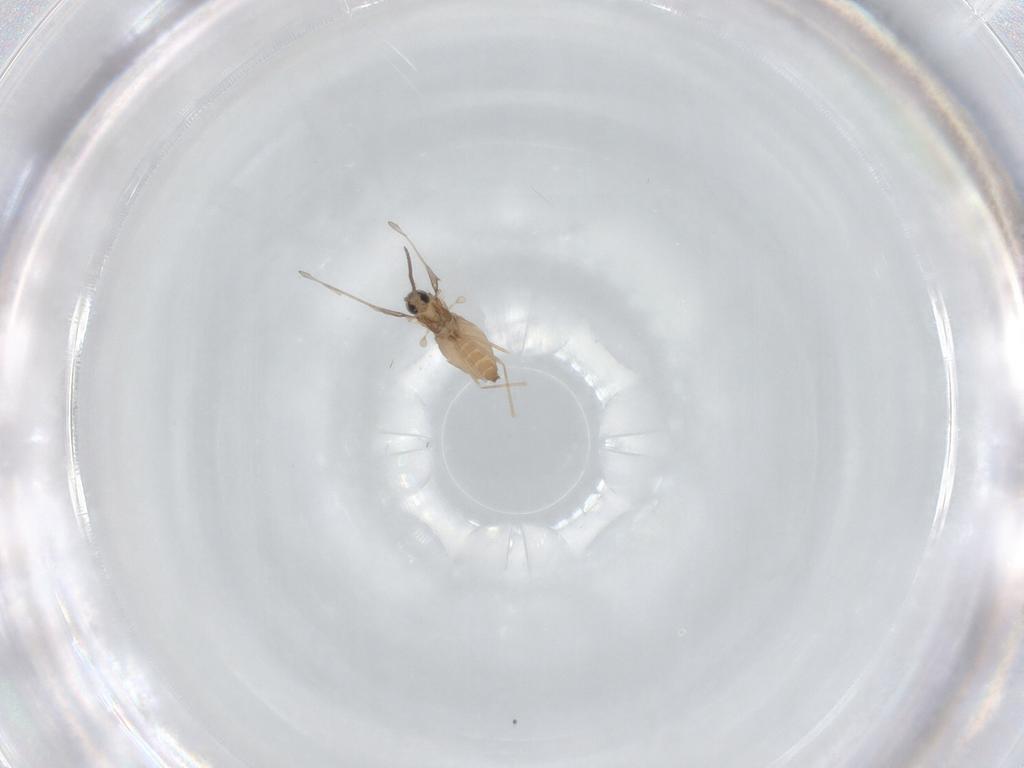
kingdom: Animalia
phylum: Arthropoda
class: Insecta
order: Diptera
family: Cecidomyiidae
